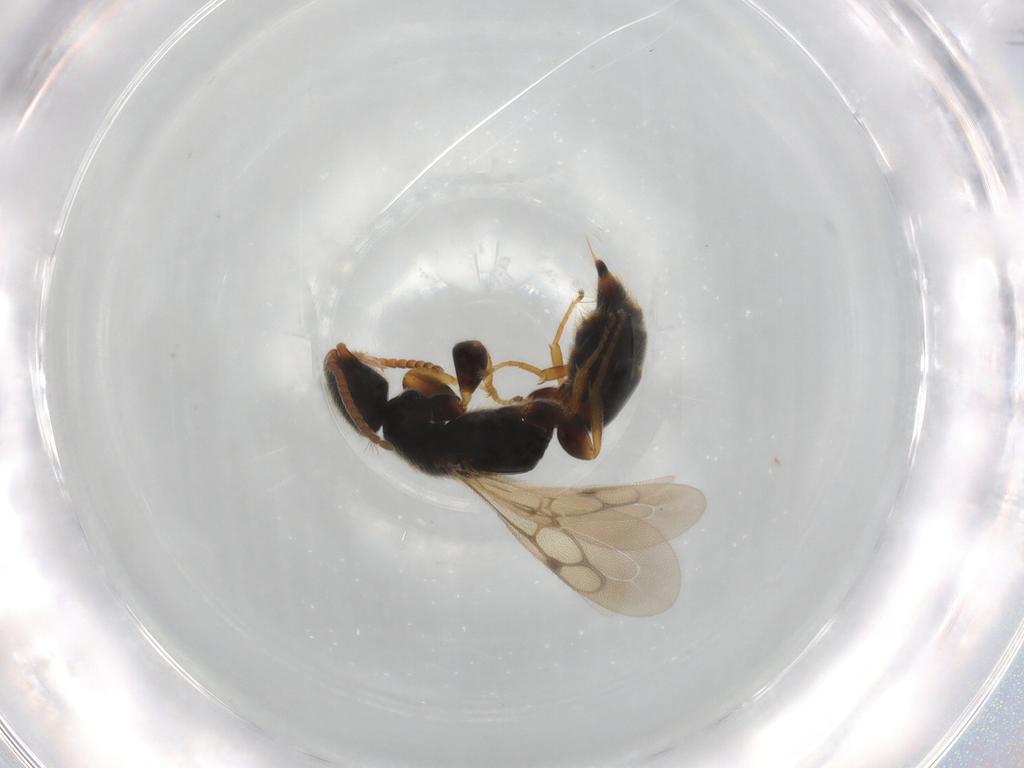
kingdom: Animalia
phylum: Arthropoda
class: Insecta
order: Hymenoptera
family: Bethylidae
